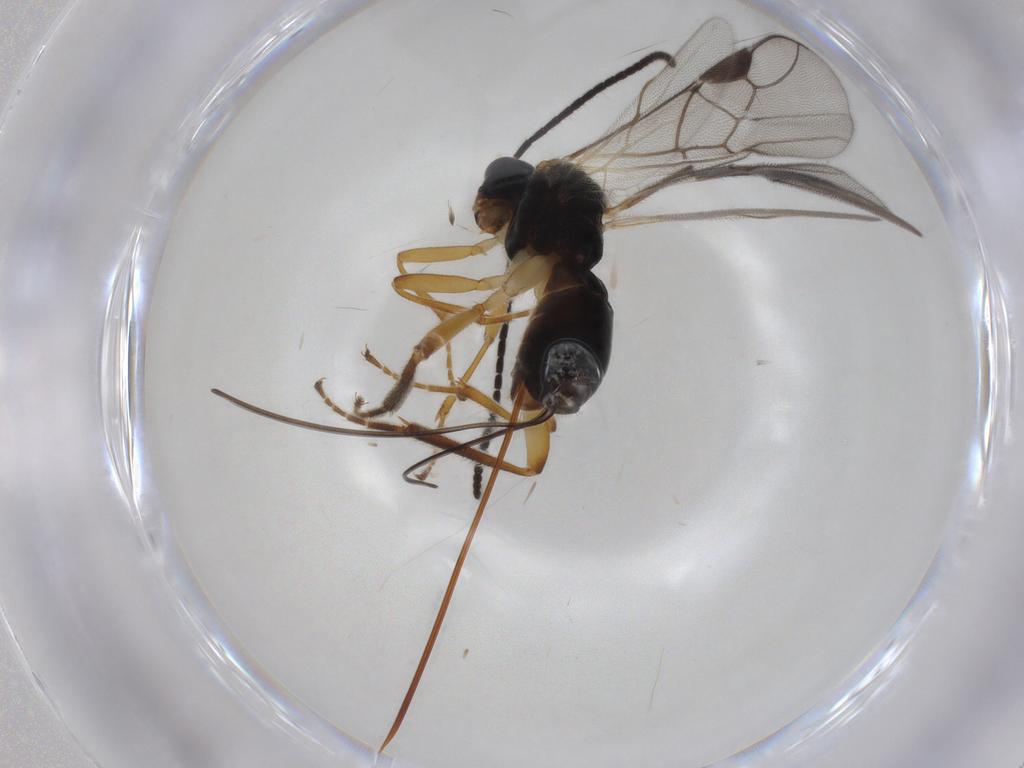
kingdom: Animalia
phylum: Arthropoda
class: Insecta
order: Hymenoptera
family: Braconidae
